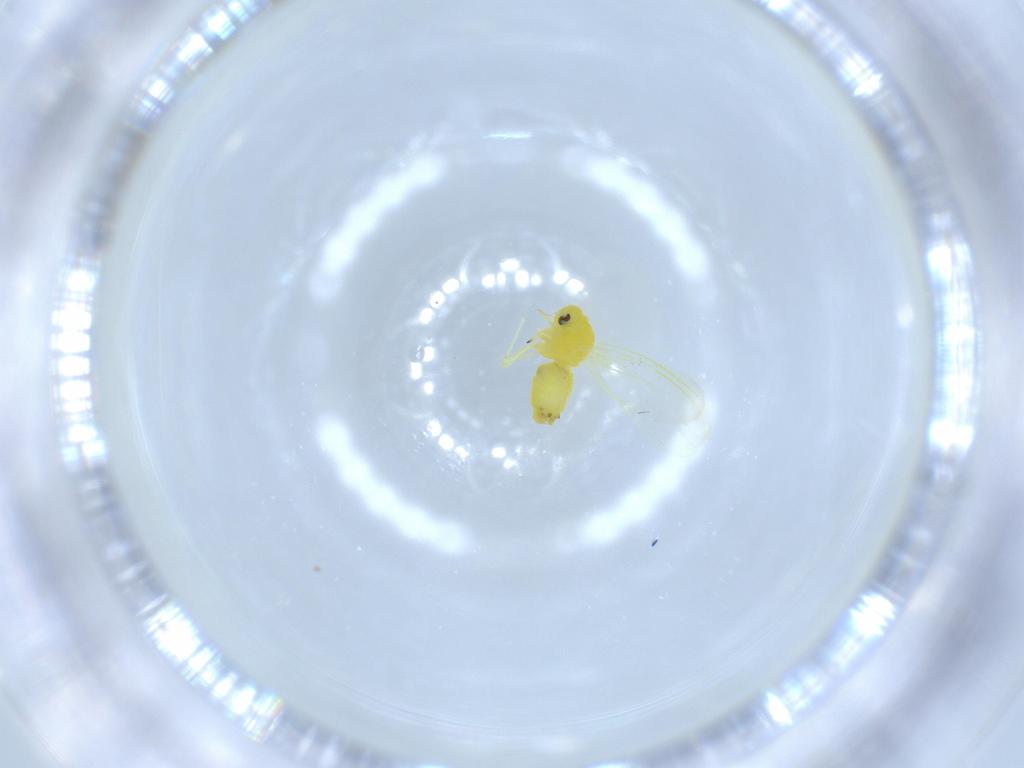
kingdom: Animalia
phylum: Arthropoda
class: Insecta
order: Hemiptera
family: Aleyrodidae
